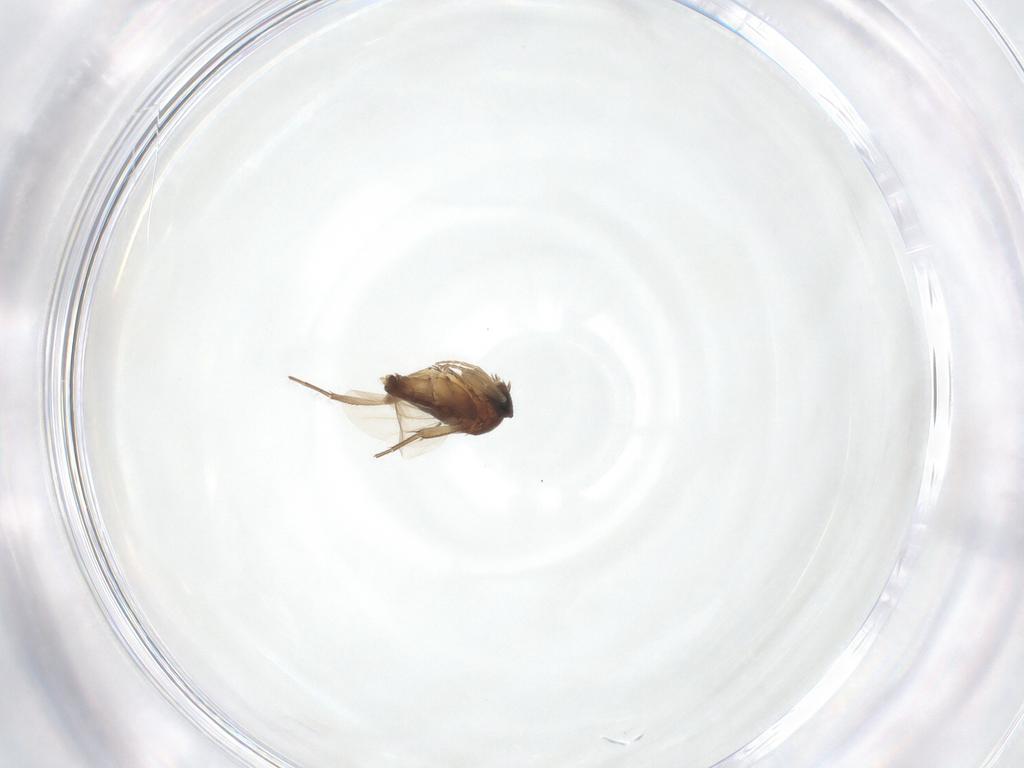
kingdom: Animalia
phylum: Arthropoda
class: Insecta
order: Diptera
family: Phoridae
